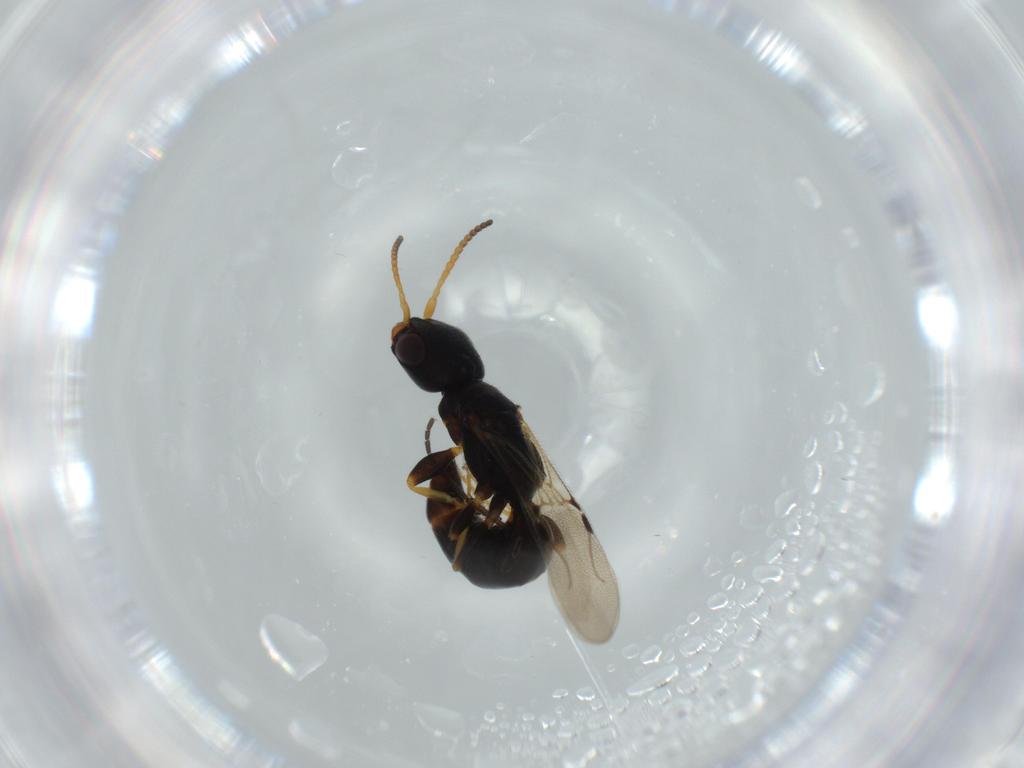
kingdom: Animalia
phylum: Arthropoda
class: Insecta
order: Hymenoptera
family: Bethylidae
